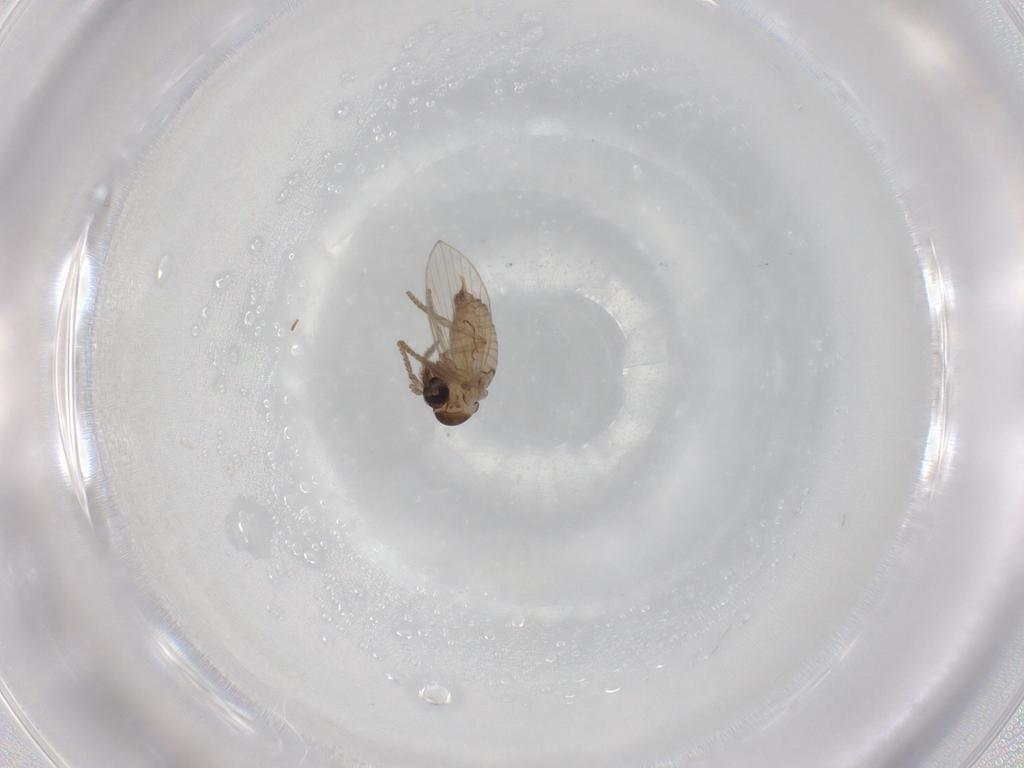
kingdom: Animalia
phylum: Arthropoda
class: Insecta
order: Diptera
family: Psychodidae
